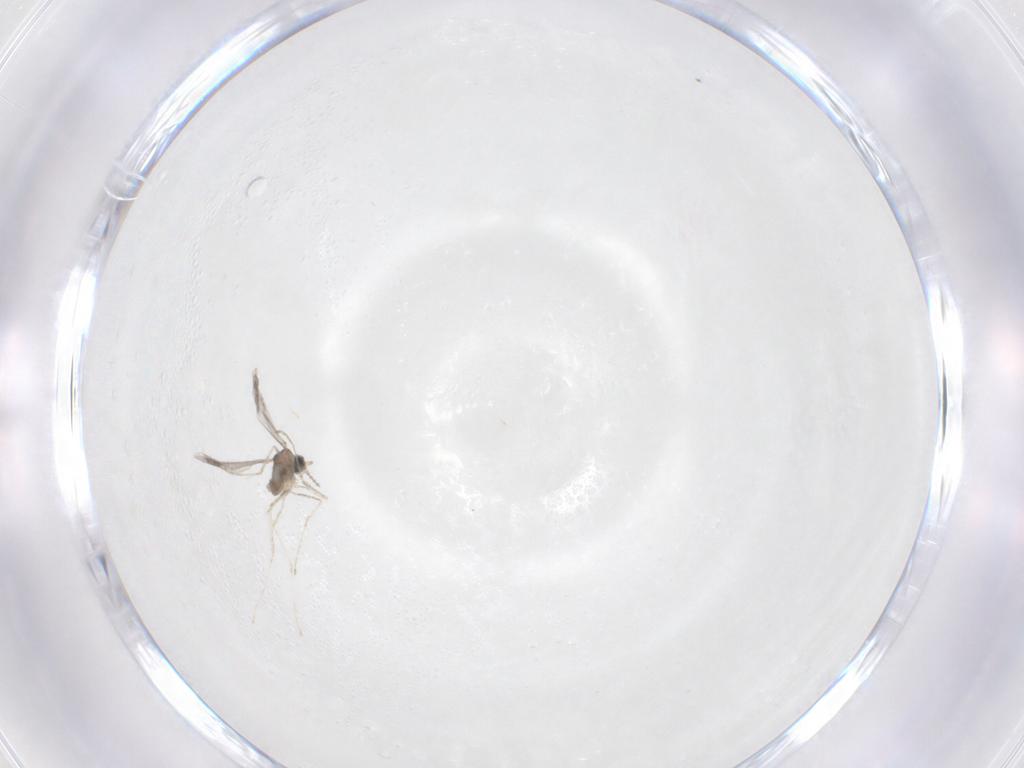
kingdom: Animalia
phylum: Arthropoda
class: Insecta
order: Diptera
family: Cecidomyiidae
